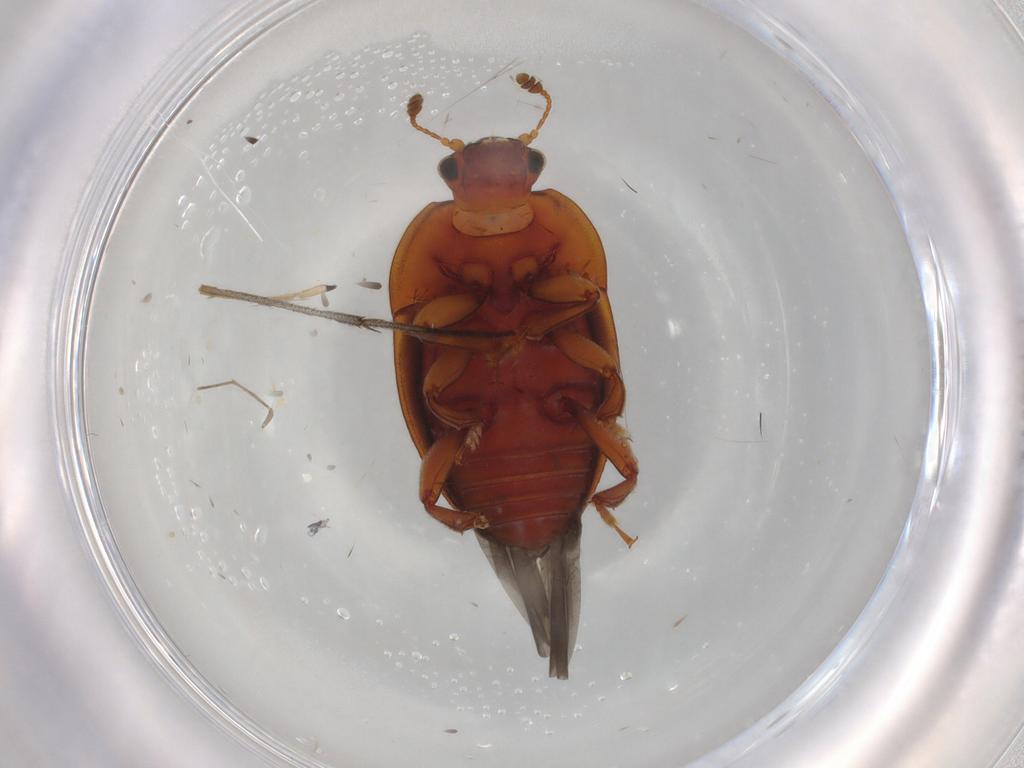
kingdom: Animalia
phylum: Arthropoda
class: Insecta
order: Coleoptera
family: Nitidulidae
